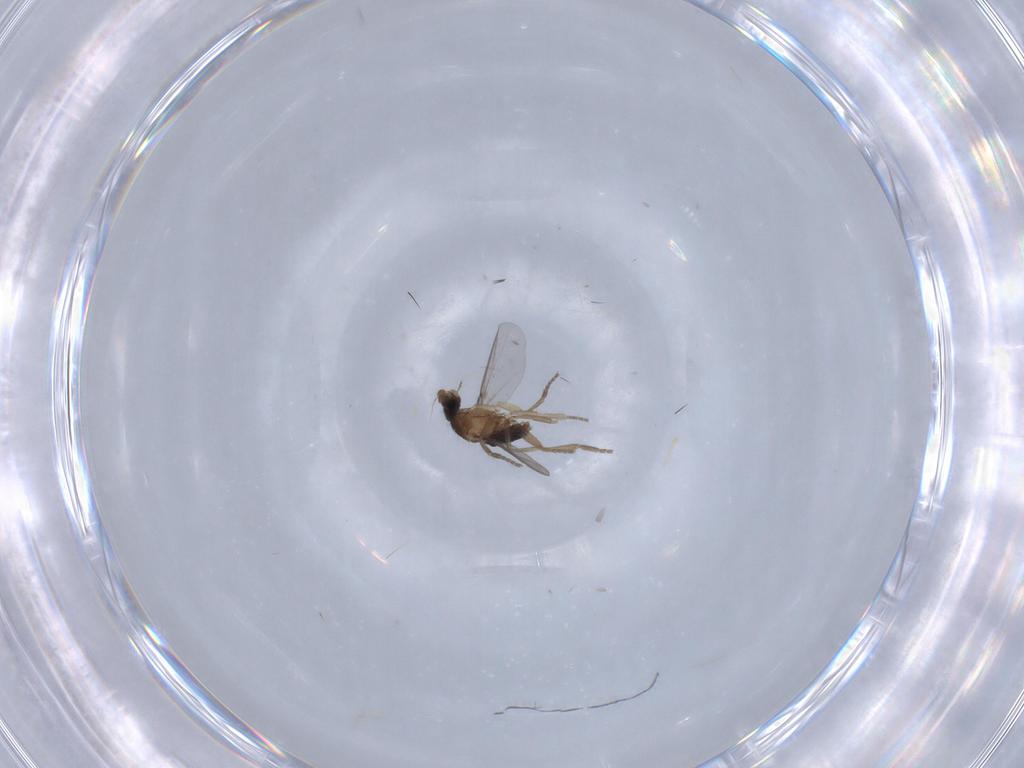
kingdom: Animalia
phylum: Arthropoda
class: Insecta
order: Diptera
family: Phoridae
